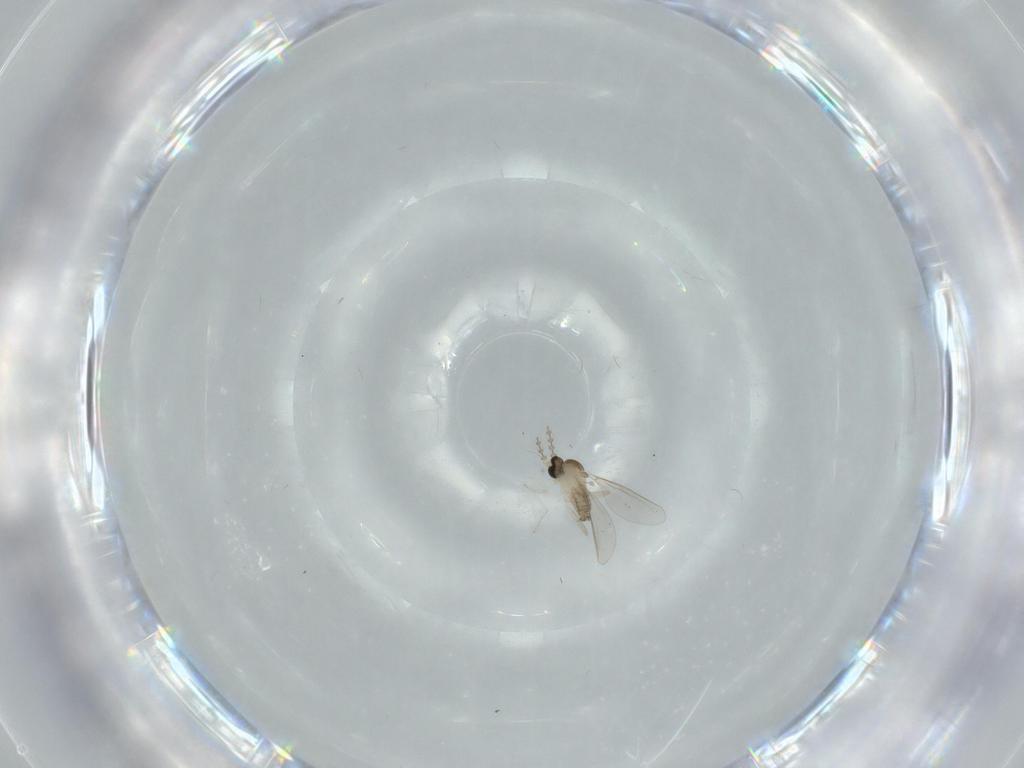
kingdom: Animalia
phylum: Arthropoda
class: Insecta
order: Diptera
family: Cecidomyiidae
